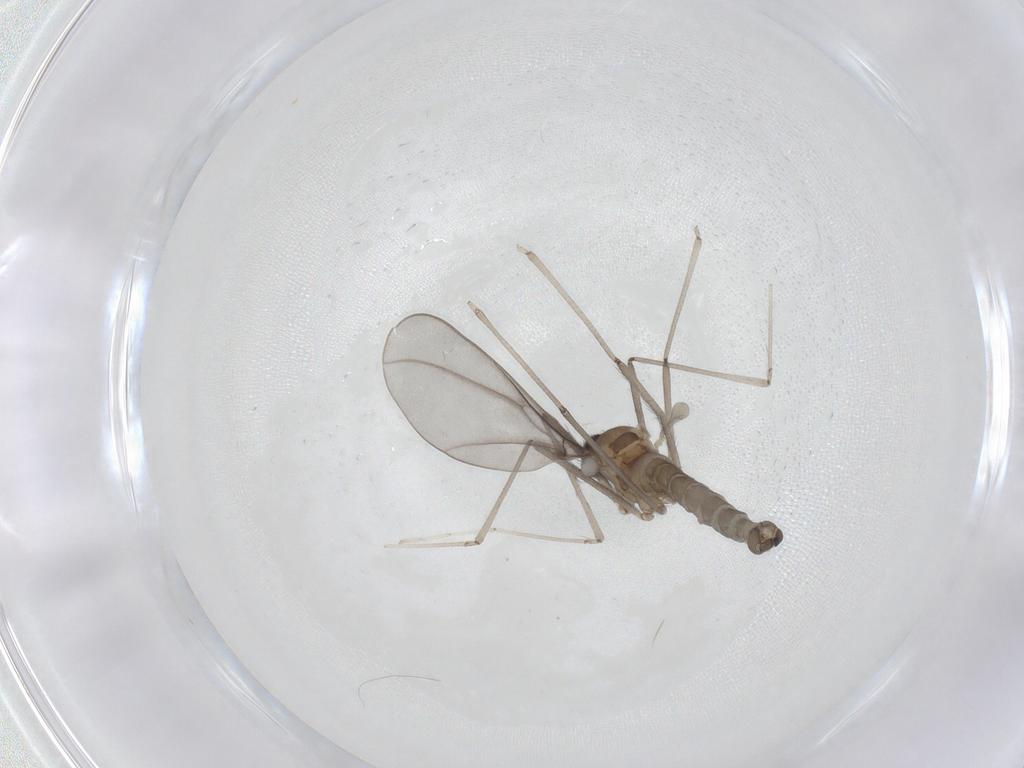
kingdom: Animalia
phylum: Arthropoda
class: Insecta
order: Diptera
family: Cecidomyiidae
